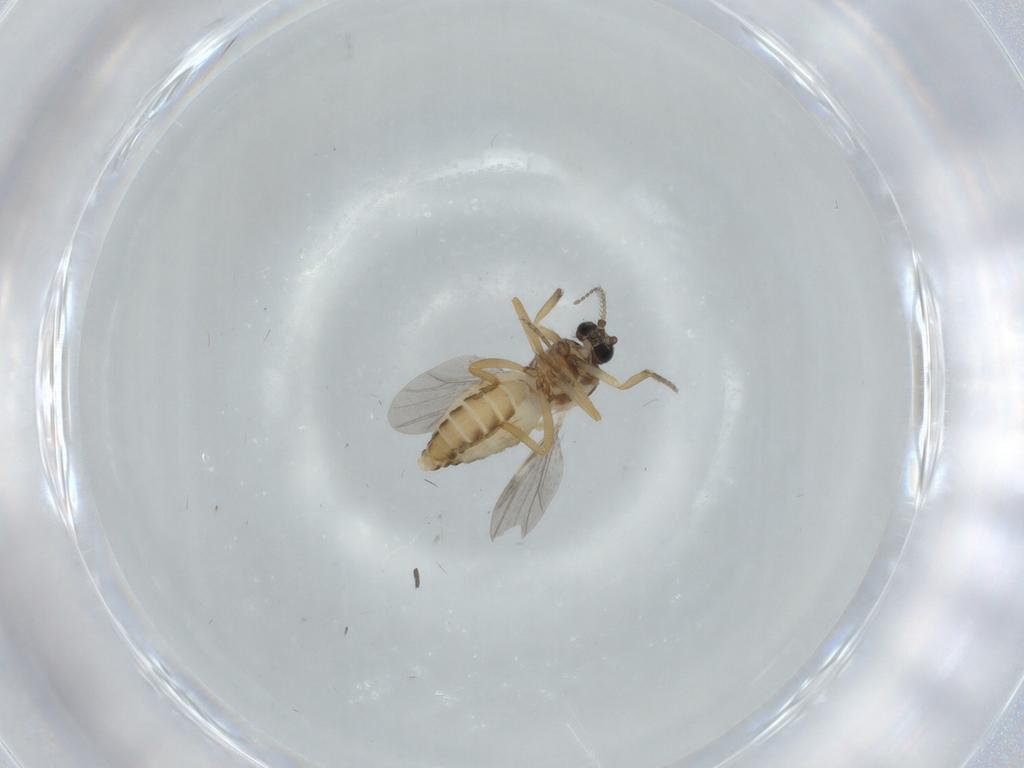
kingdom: Animalia
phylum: Arthropoda
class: Insecta
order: Diptera
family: Ceratopogonidae
